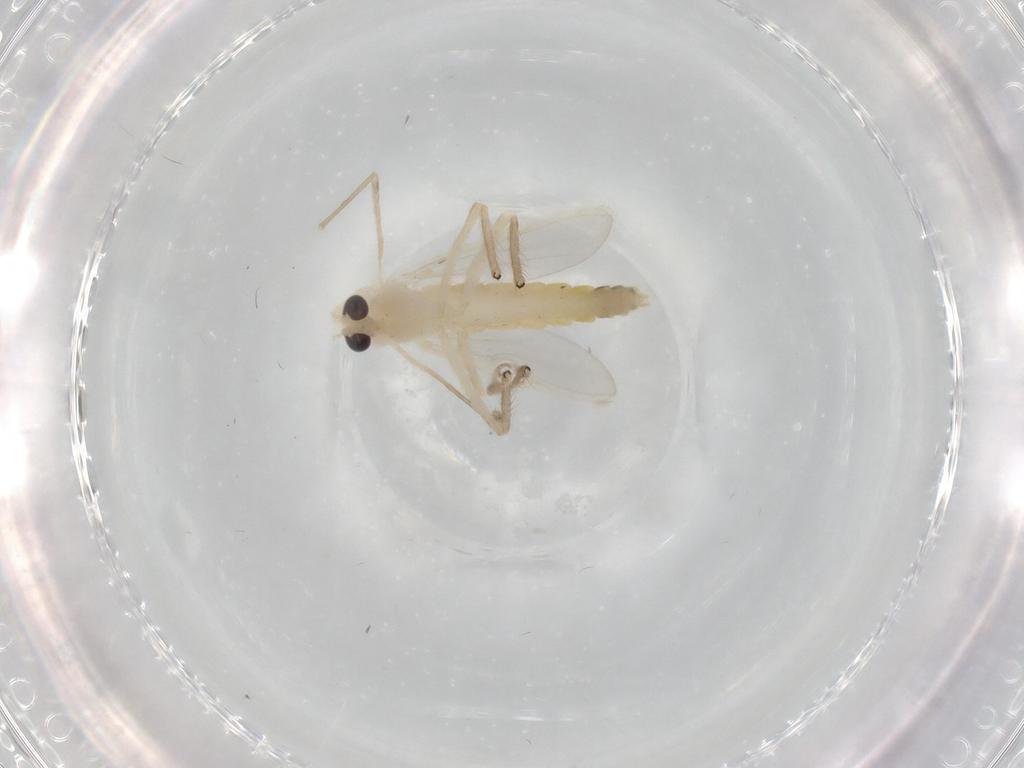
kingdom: Animalia
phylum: Arthropoda
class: Insecta
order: Diptera
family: Chironomidae
